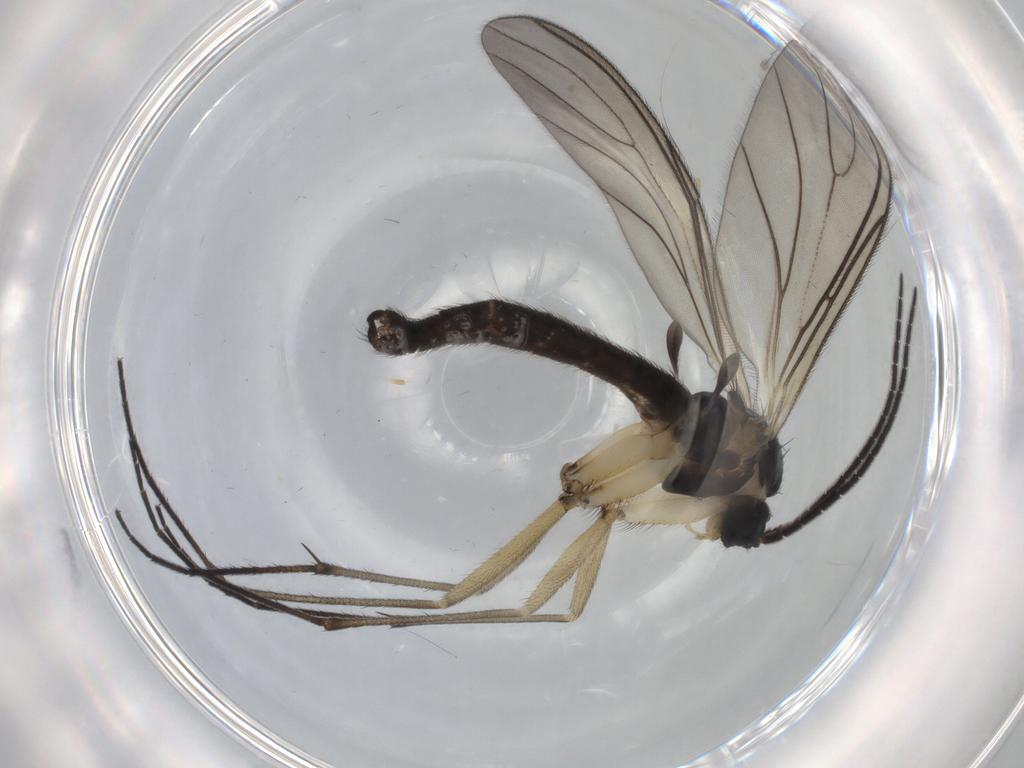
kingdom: Animalia
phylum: Arthropoda
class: Insecta
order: Diptera
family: Sciaridae
